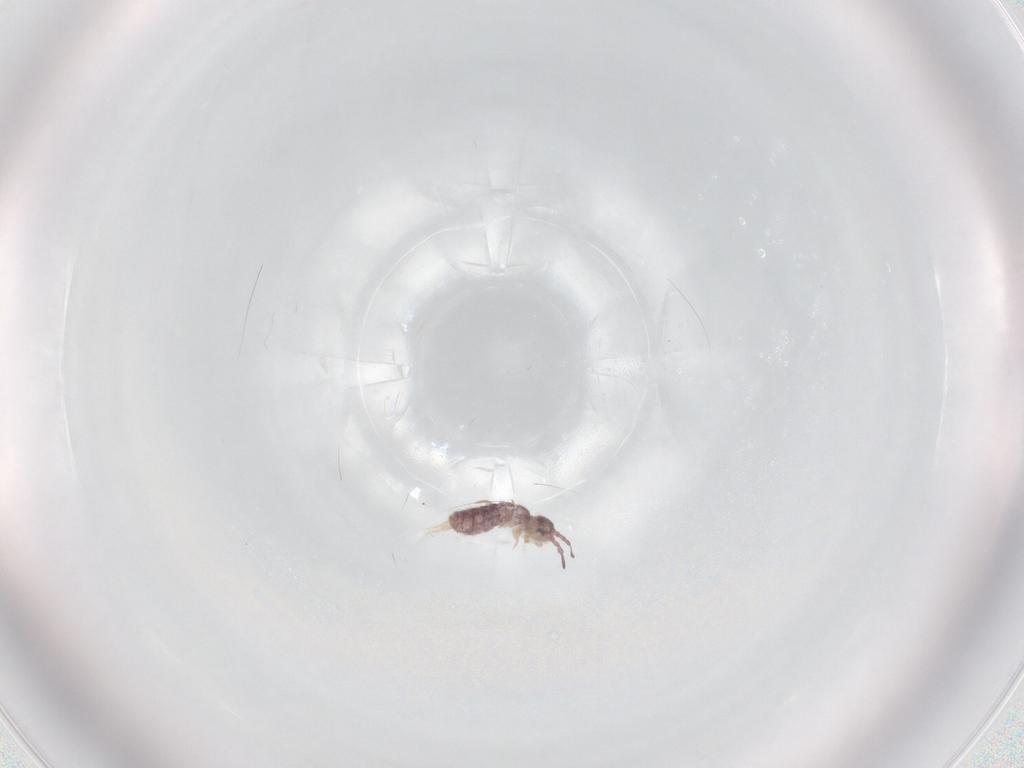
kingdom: Animalia
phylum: Arthropoda
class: Collembola
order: Entomobryomorpha
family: Isotomidae
